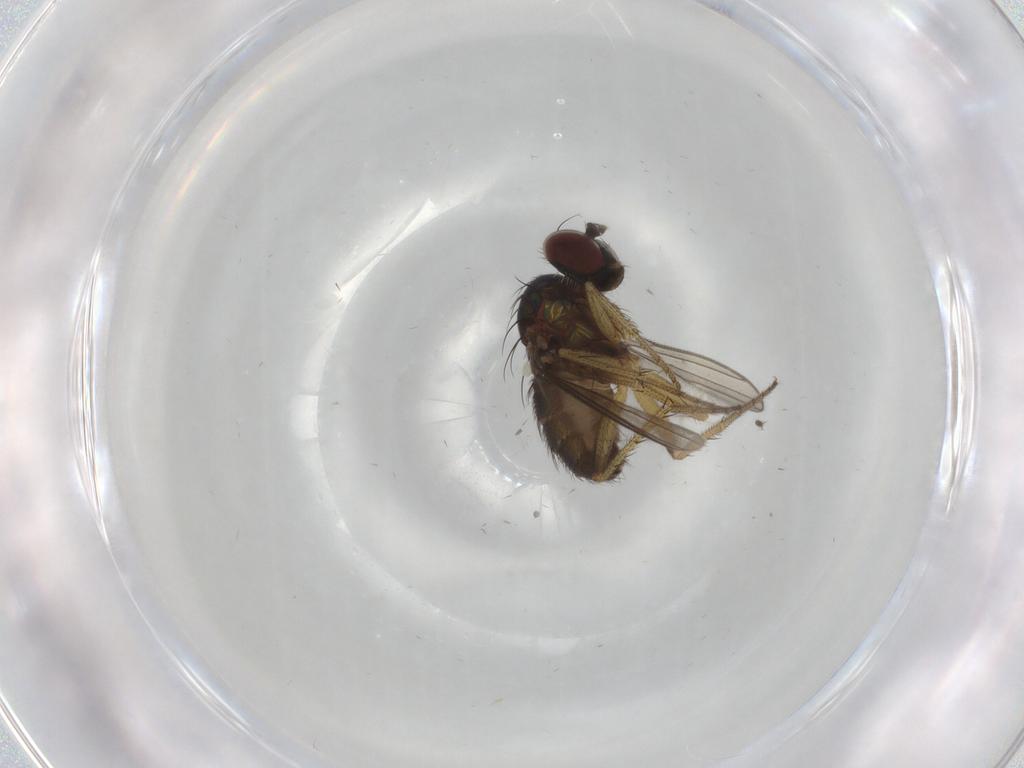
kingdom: Animalia
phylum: Arthropoda
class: Insecta
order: Diptera
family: Dolichopodidae
